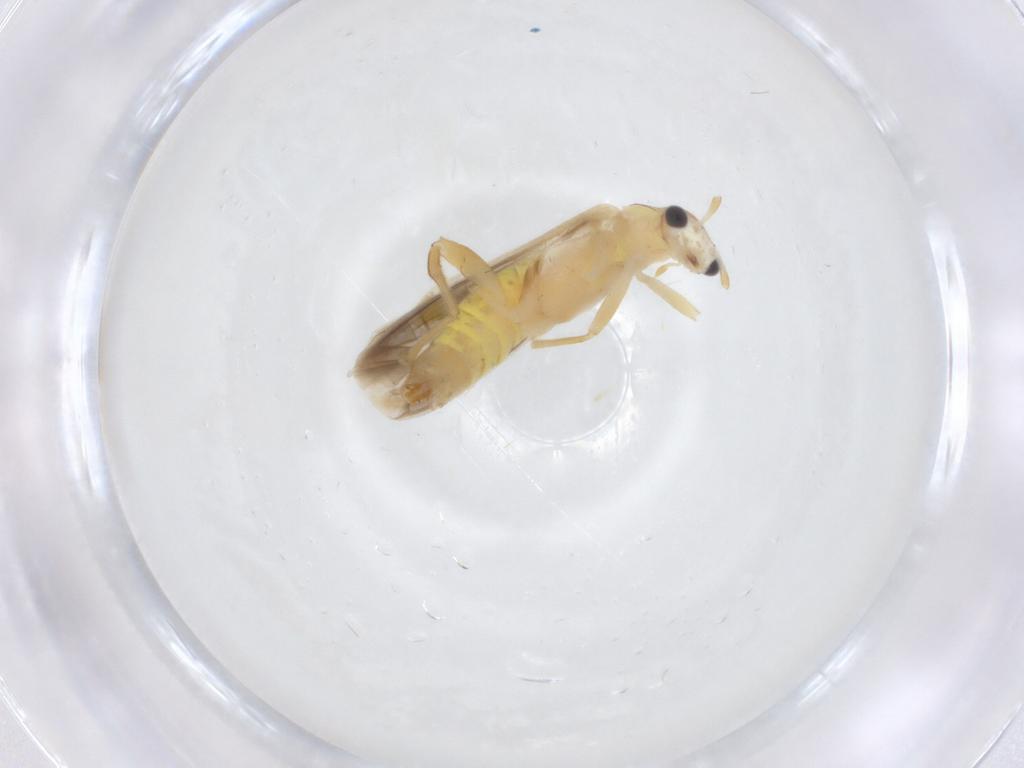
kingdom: Animalia
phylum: Arthropoda
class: Insecta
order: Coleoptera
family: Cantharidae
